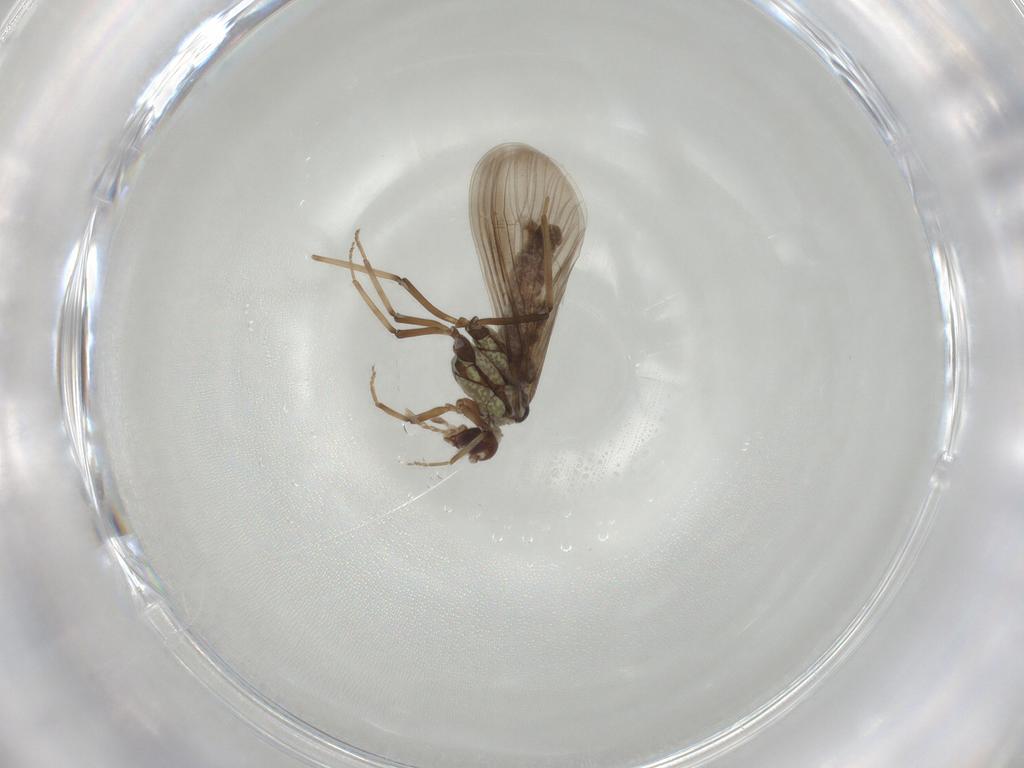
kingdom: Animalia
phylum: Arthropoda
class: Insecta
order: Neuroptera
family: Coniopterygidae
